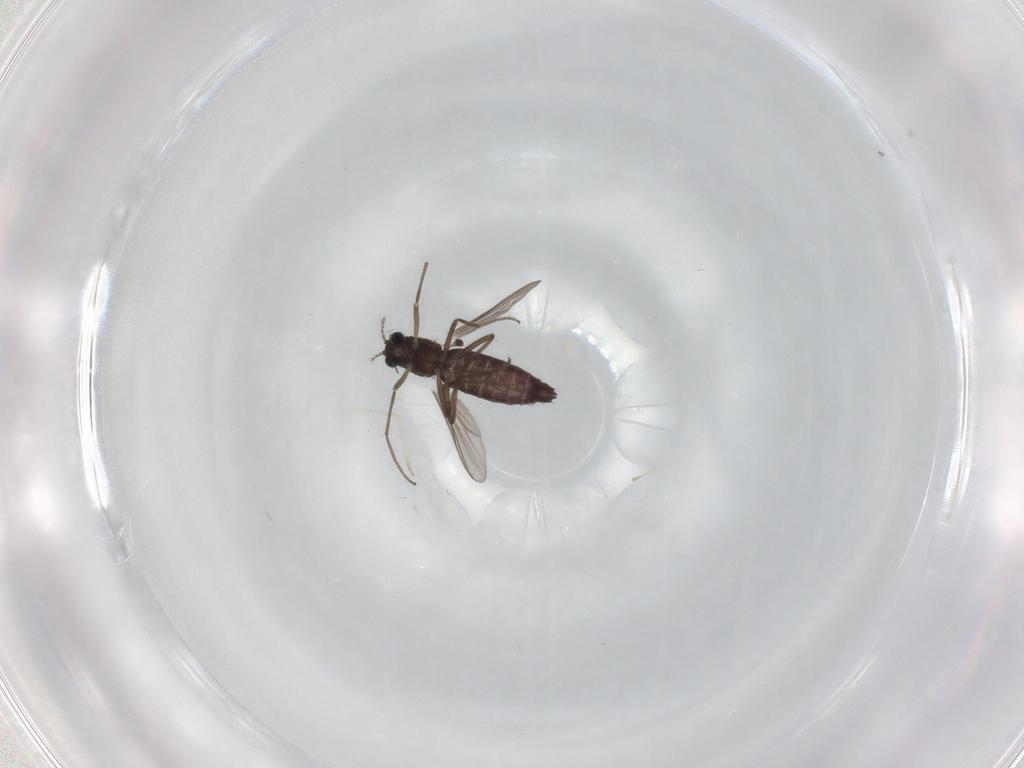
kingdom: Animalia
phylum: Arthropoda
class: Insecta
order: Diptera
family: Chironomidae
